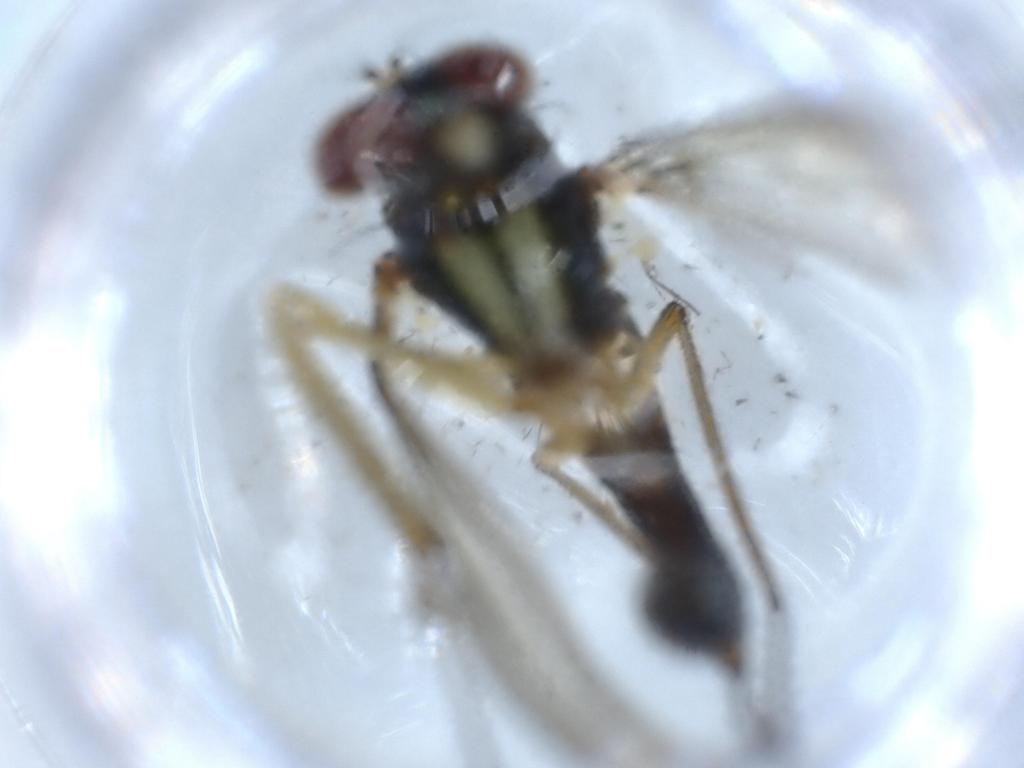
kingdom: Animalia
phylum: Arthropoda
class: Insecta
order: Diptera
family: Dolichopodidae
